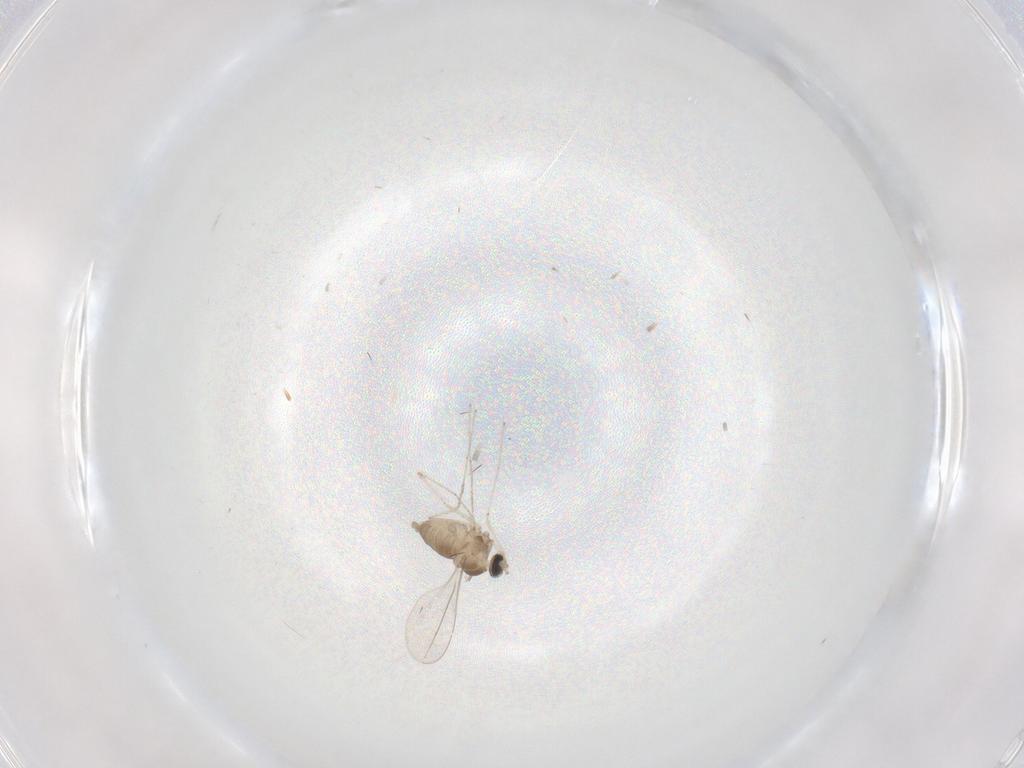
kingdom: Animalia
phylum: Arthropoda
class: Insecta
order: Diptera
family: Cecidomyiidae
